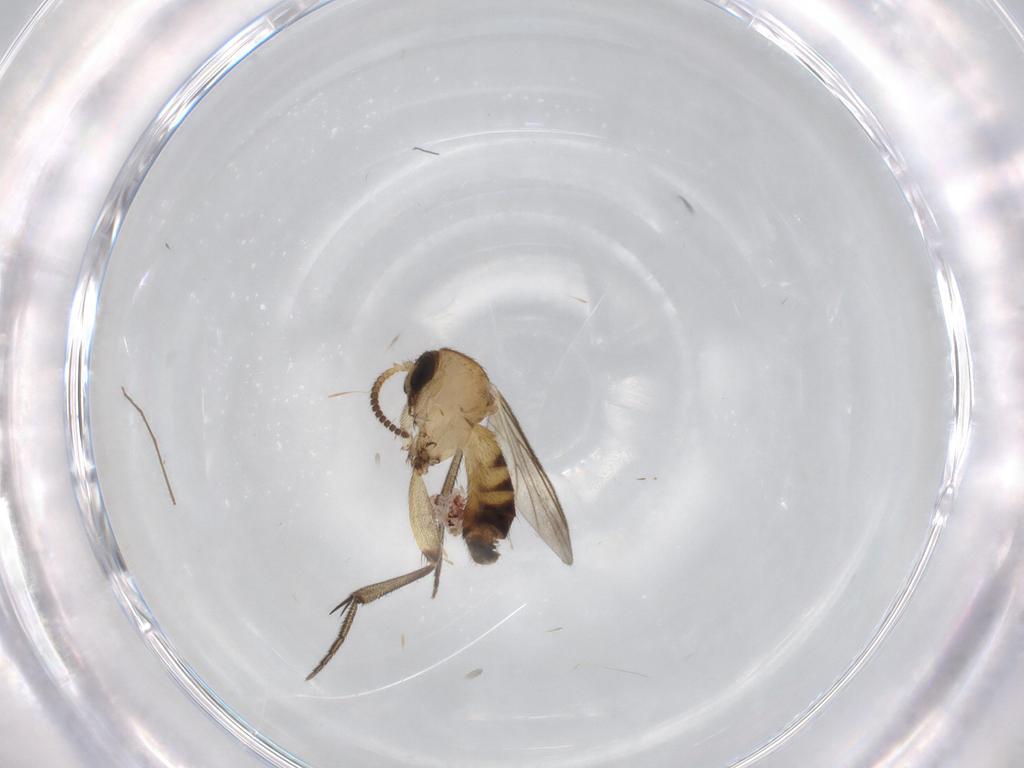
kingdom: Animalia
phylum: Arthropoda
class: Insecta
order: Diptera
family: Mycetophilidae
